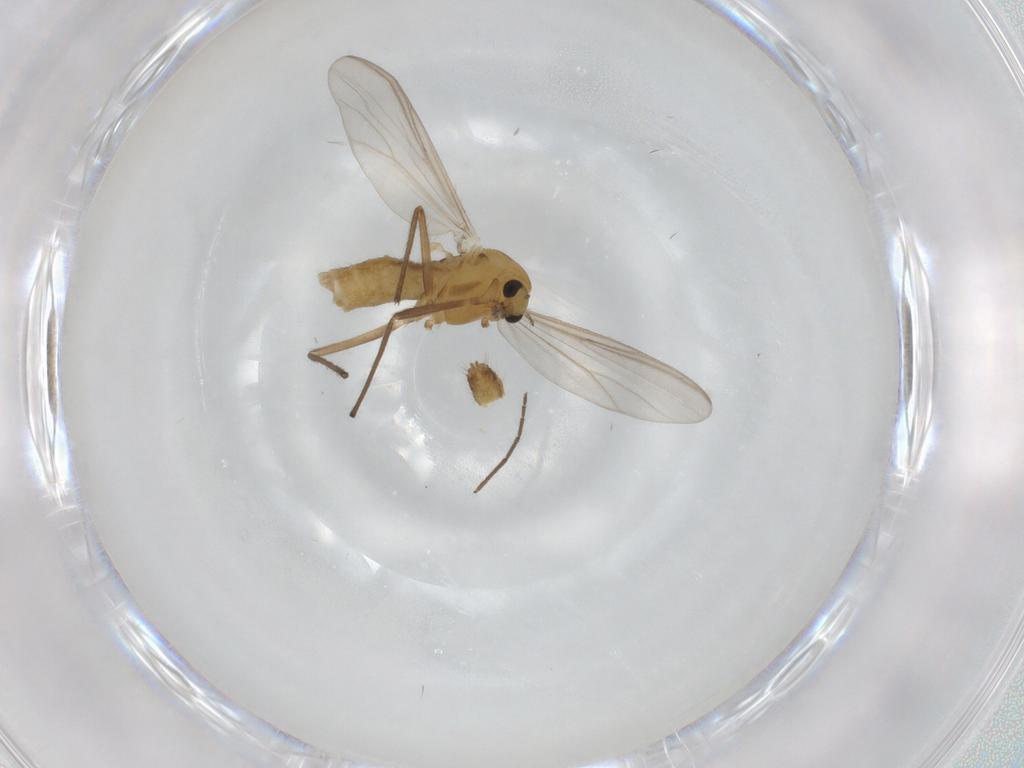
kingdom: Animalia
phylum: Arthropoda
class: Insecta
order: Diptera
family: Chironomidae
